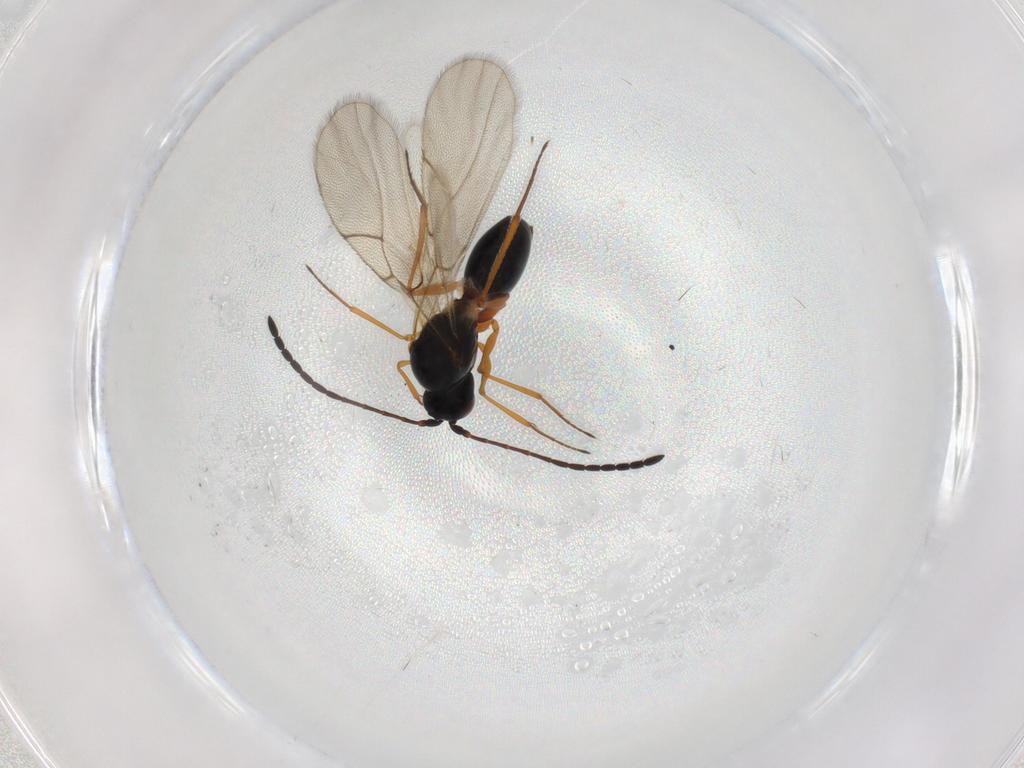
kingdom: Animalia
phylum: Arthropoda
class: Insecta
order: Hymenoptera
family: Figitidae
